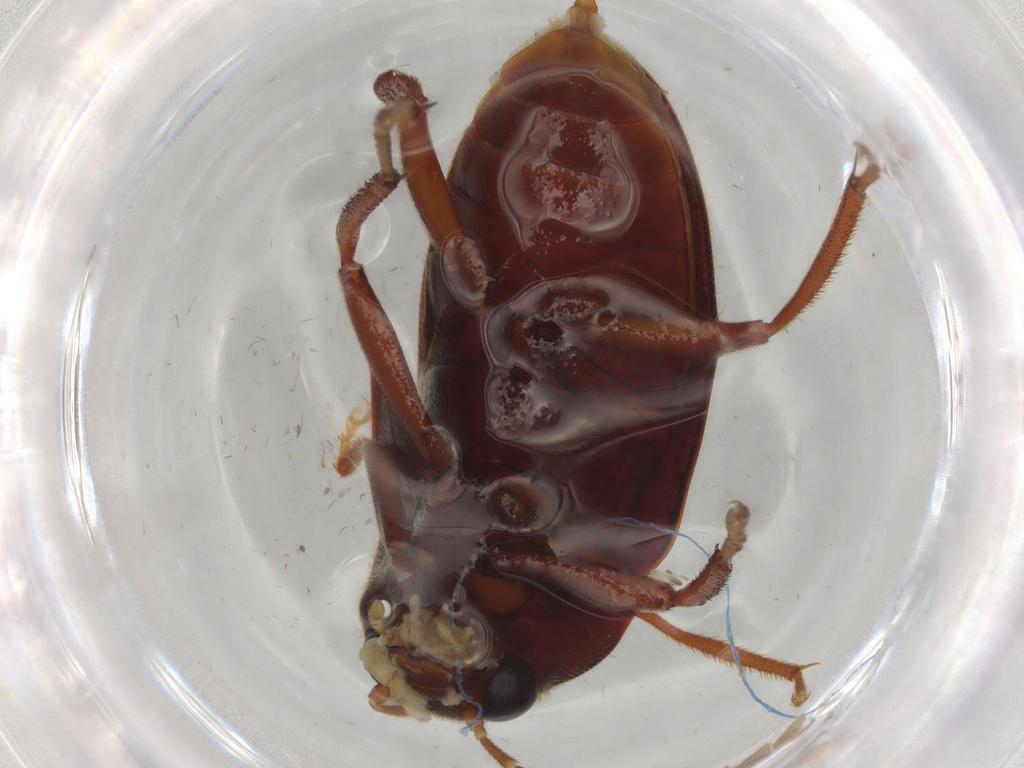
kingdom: Animalia
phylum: Arthropoda
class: Insecta
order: Coleoptera
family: Ptilodactylidae
